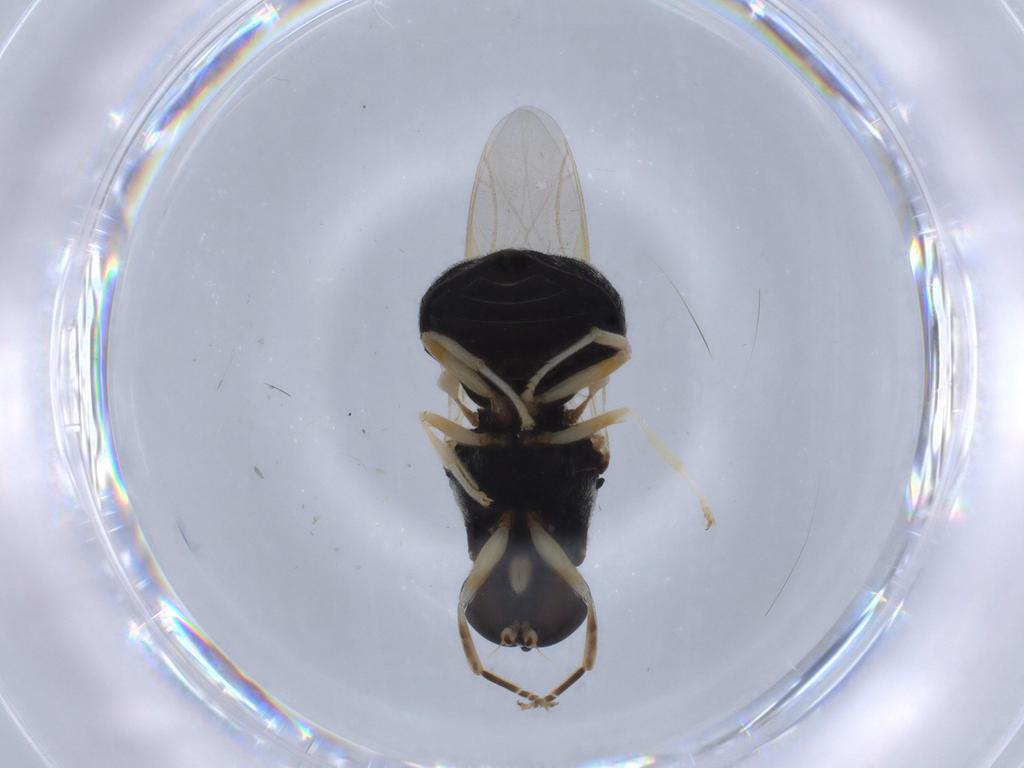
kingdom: Animalia
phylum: Arthropoda
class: Insecta
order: Diptera
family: Stratiomyidae
